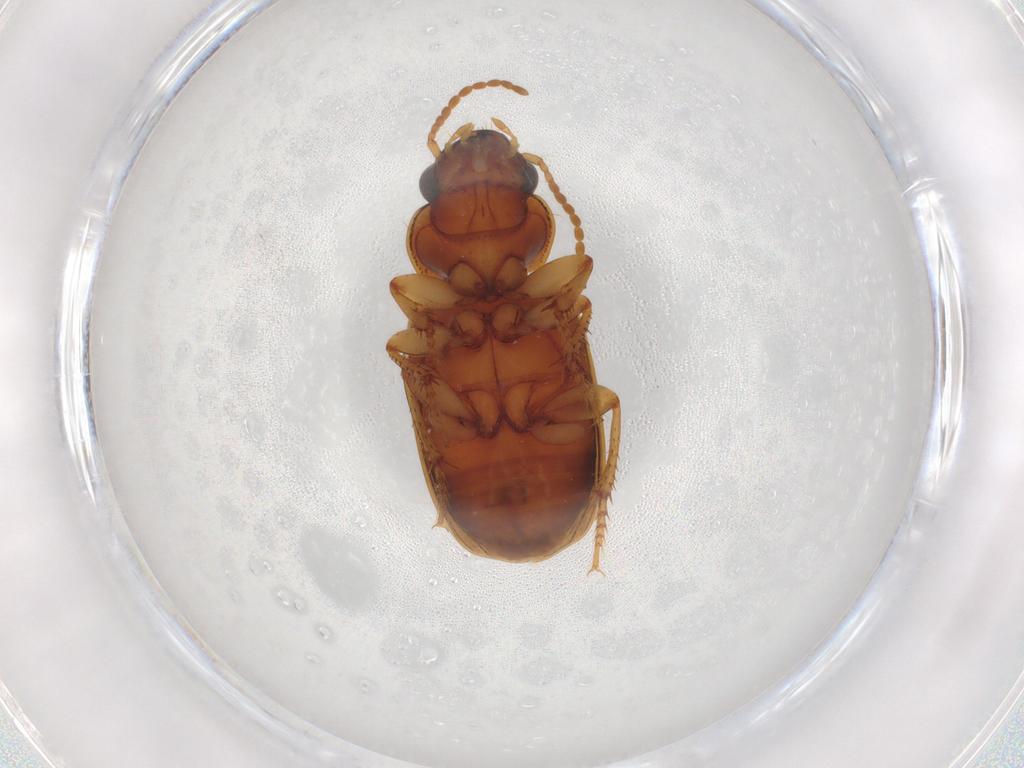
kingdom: Animalia
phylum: Arthropoda
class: Insecta
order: Coleoptera
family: Carabidae
